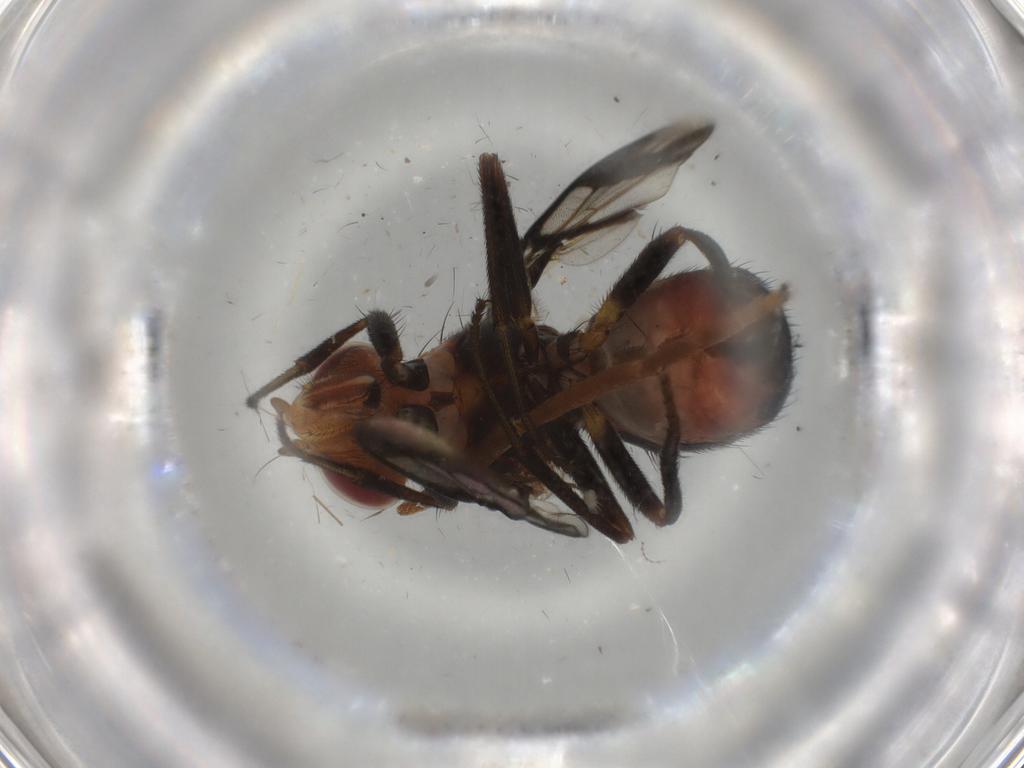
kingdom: Animalia
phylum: Arthropoda
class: Insecta
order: Diptera
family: Richardiidae
